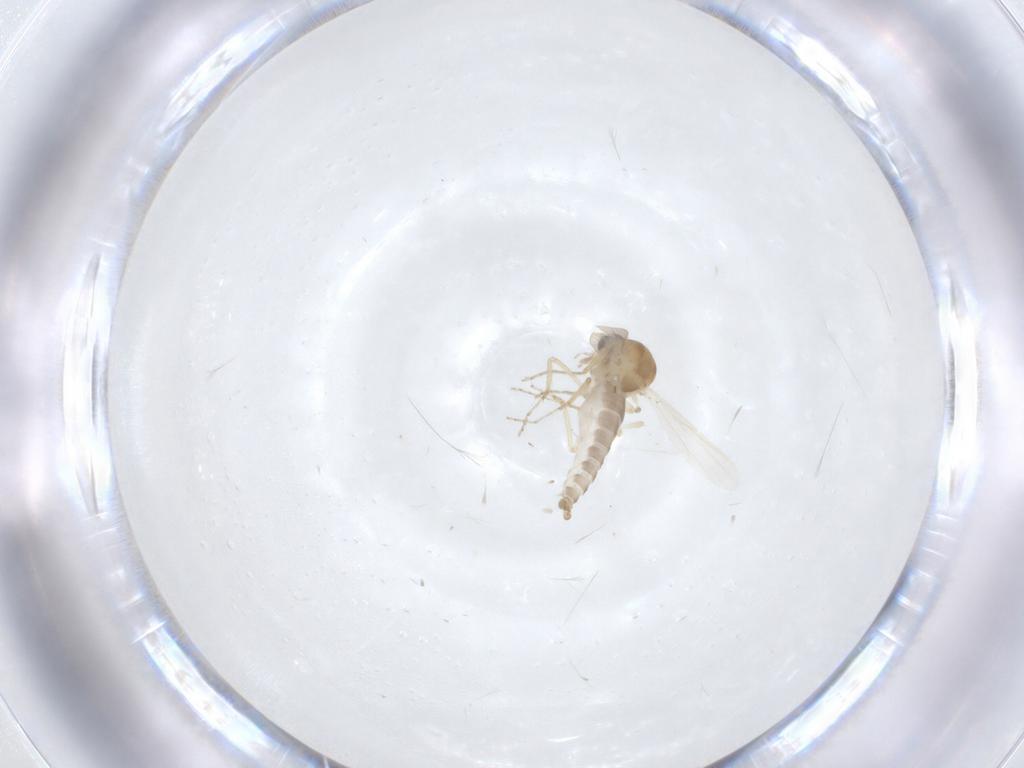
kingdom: Animalia
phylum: Arthropoda
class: Insecta
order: Diptera
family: Ceratopogonidae
